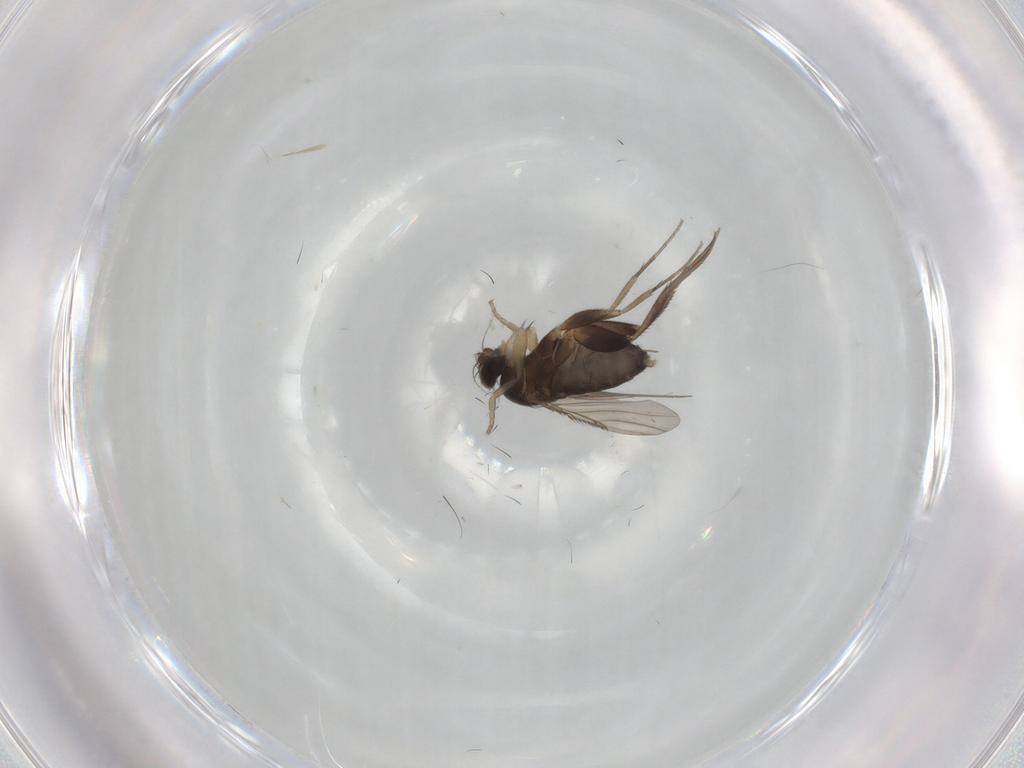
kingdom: Animalia
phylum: Arthropoda
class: Insecta
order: Diptera
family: Phoridae
